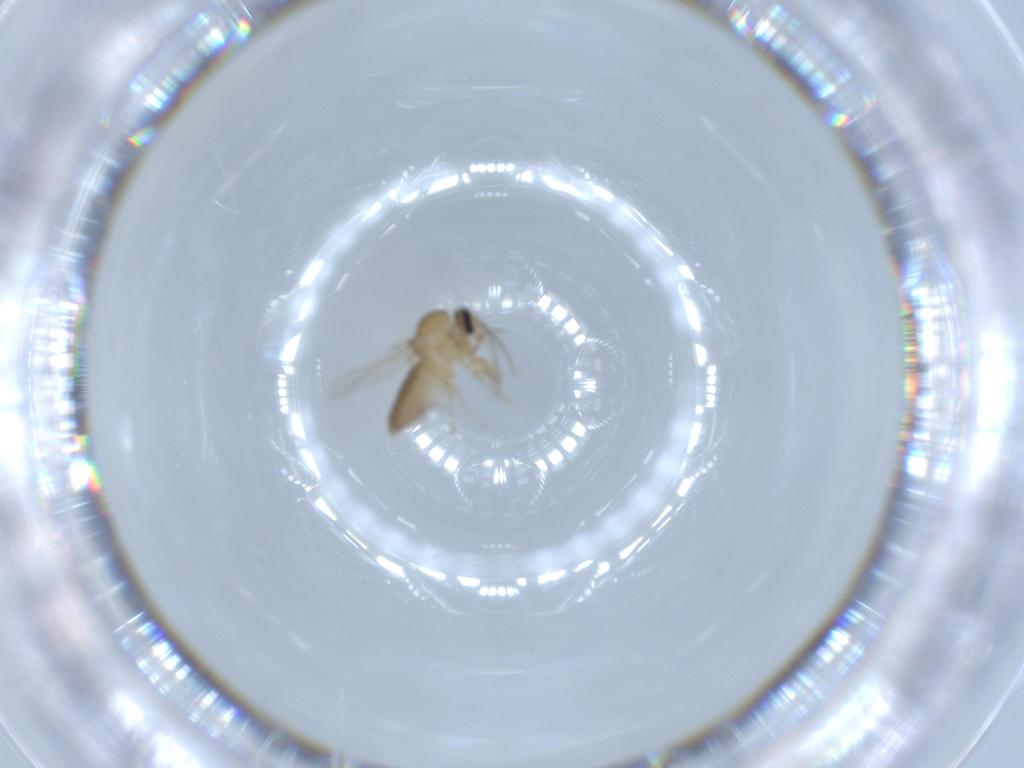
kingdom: Animalia
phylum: Arthropoda
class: Insecta
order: Diptera
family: Ceratopogonidae
